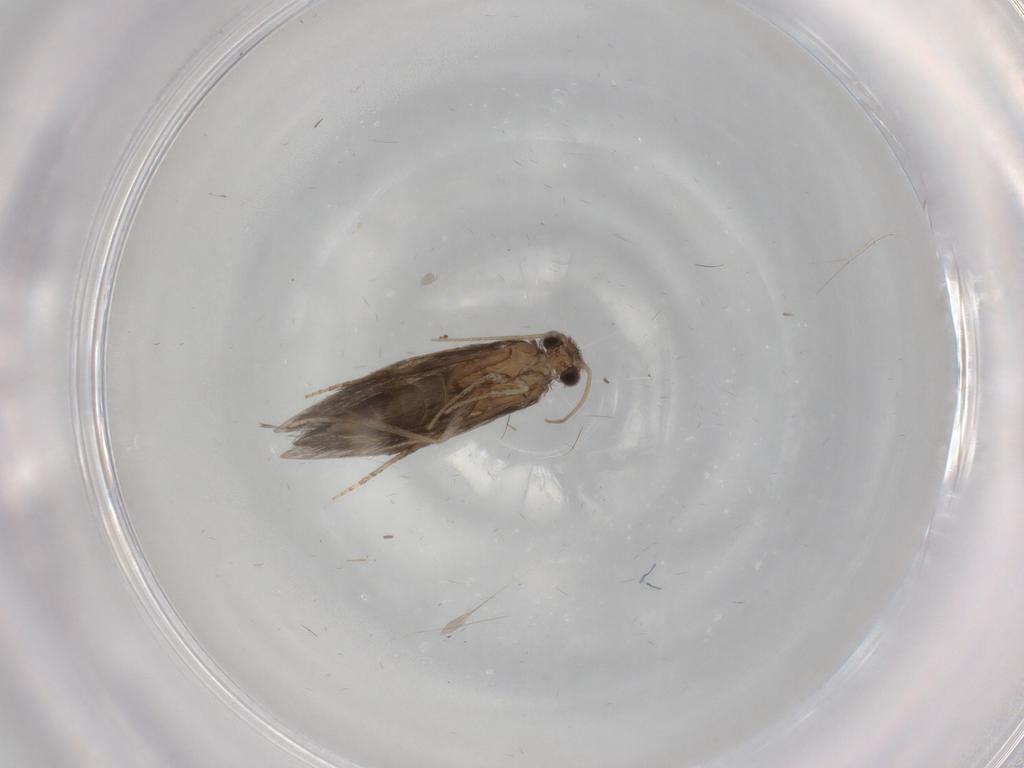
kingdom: Animalia
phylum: Arthropoda
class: Insecta
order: Trichoptera
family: Hydroptilidae
